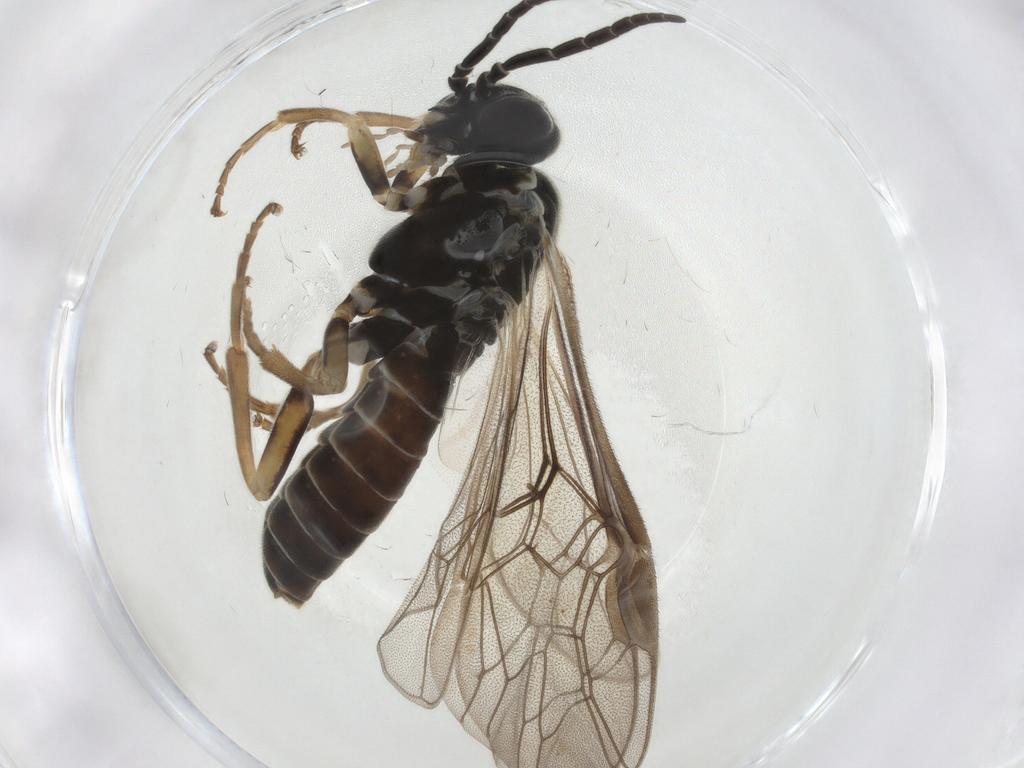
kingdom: Animalia
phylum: Arthropoda
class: Insecta
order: Hymenoptera
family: Tenthredinidae
